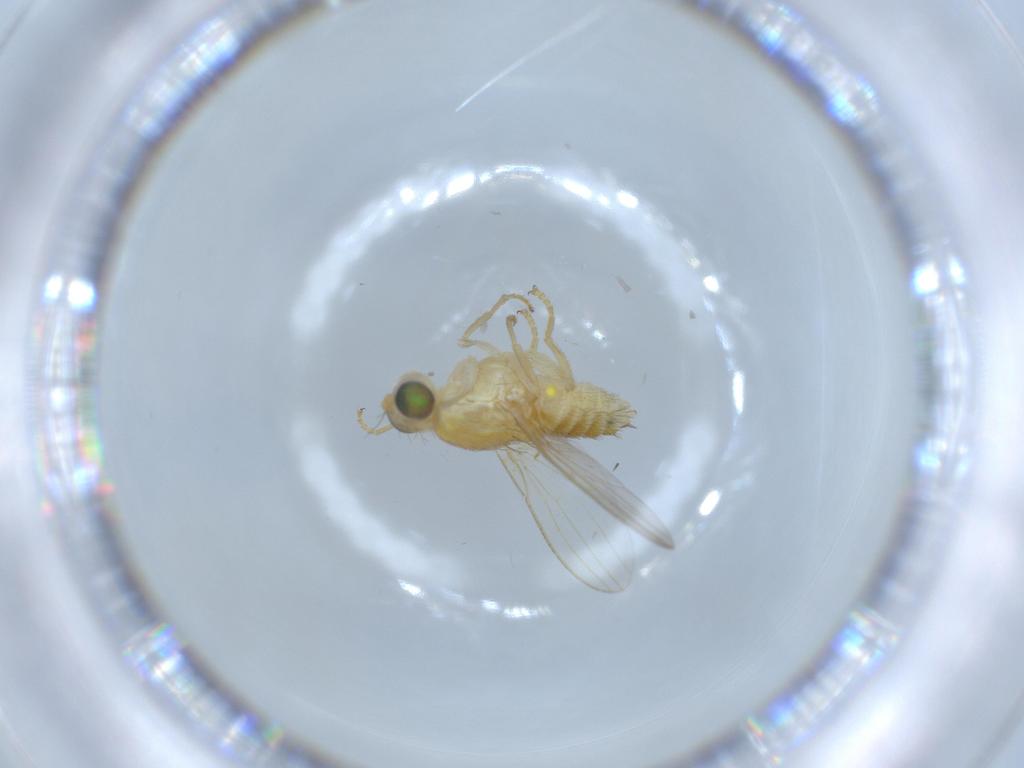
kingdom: Animalia
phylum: Arthropoda
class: Insecta
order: Diptera
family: Chyromyidae
